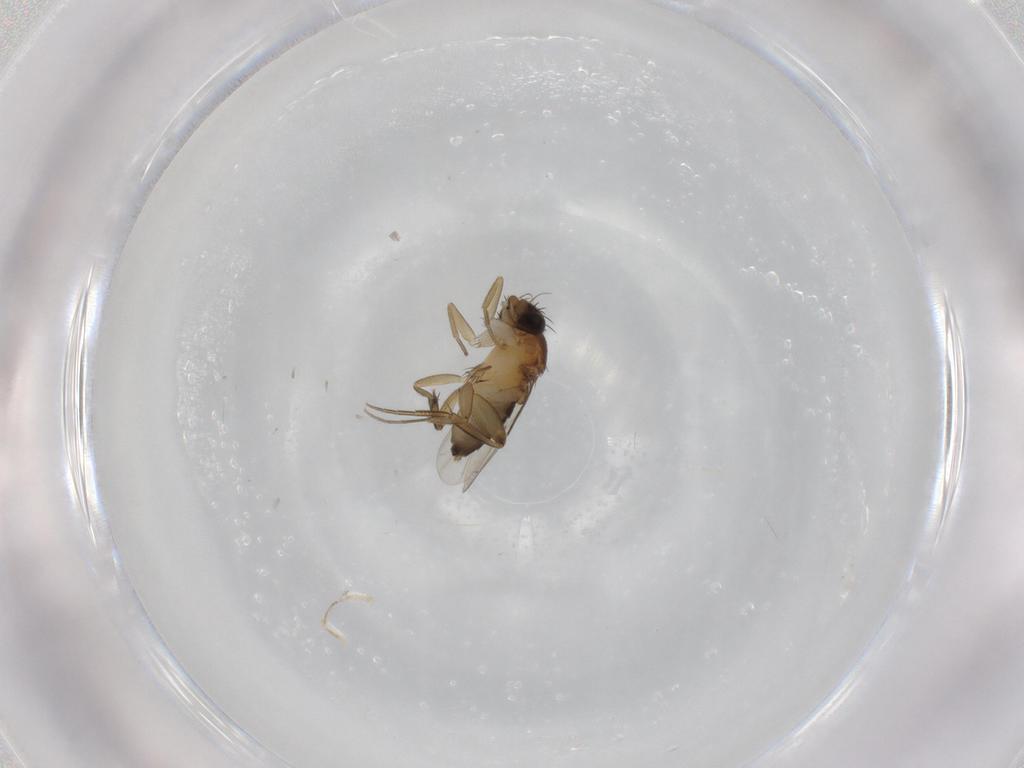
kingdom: Animalia
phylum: Arthropoda
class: Insecta
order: Diptera
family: Phoridae
